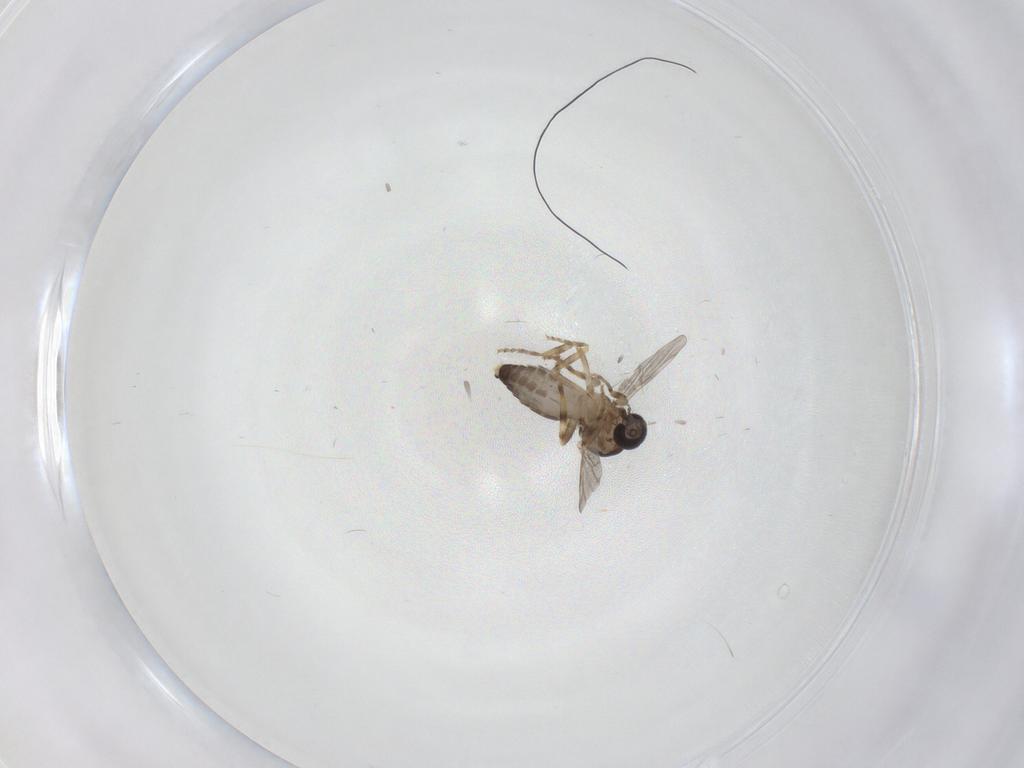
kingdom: Animalia
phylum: Arthropoda
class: Insecta
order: Diptera
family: Ceratopogonidae
